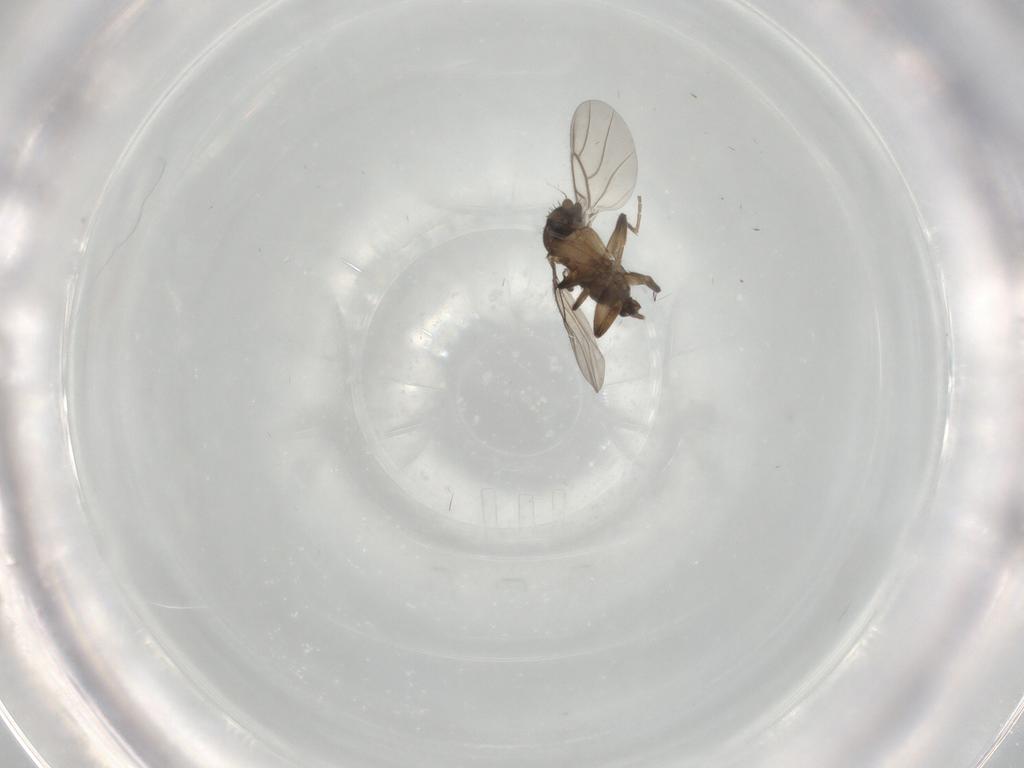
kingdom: Animalia
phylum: Arthropoda
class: Insecta
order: Diptera
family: Phoridae
